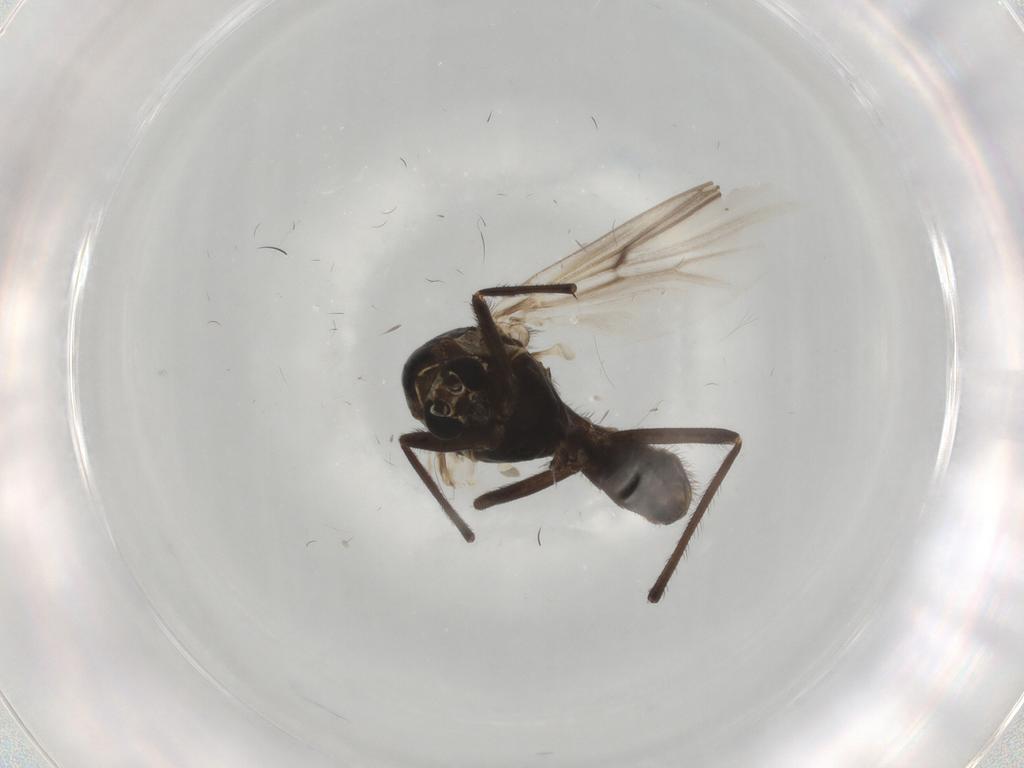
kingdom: Animalia
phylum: Arthropoda
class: Insecta
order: Diptera
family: Chironomidae
